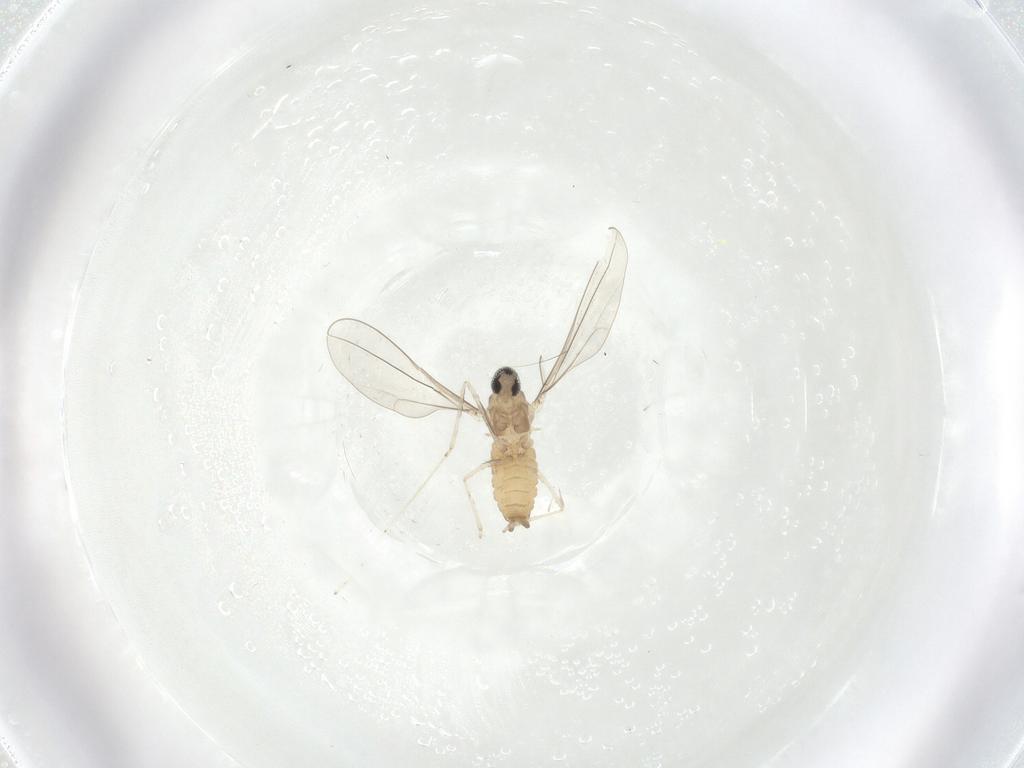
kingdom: Animalia
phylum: Arthropoda
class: Insecta
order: Diptera
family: Cecidomyiidae
